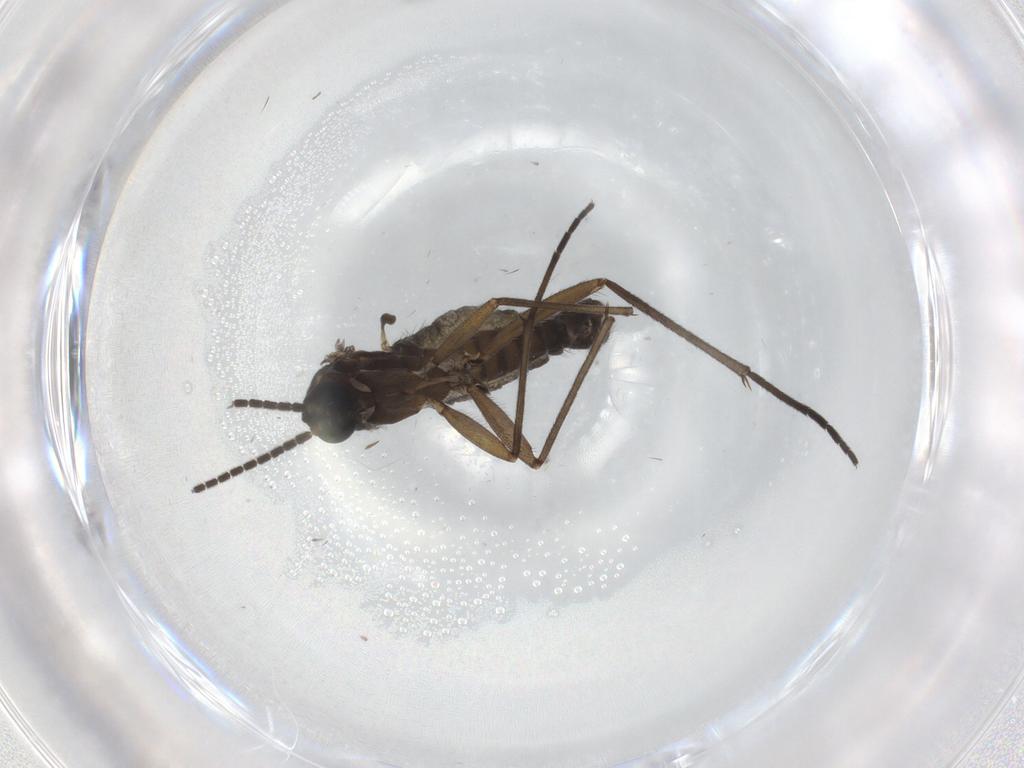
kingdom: Animalia
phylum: Arthropoda
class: Insecta
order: Diptera
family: Sciaridae
